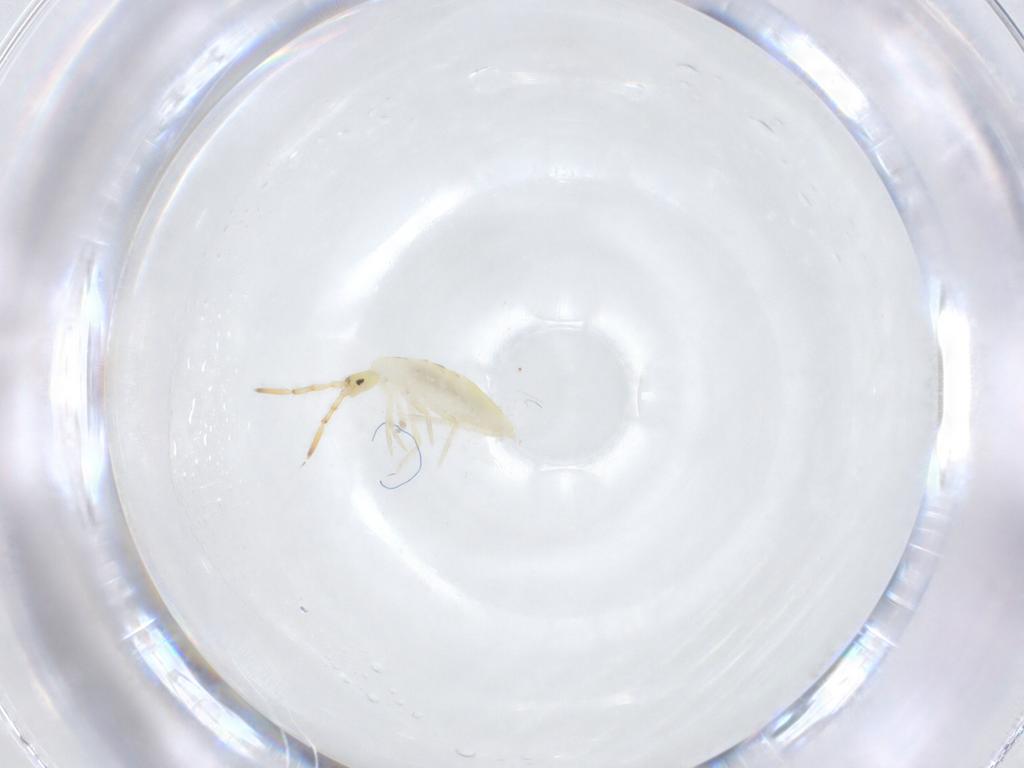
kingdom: Animalia
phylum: Arthropoda
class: Collembola
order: Entomobryomorpha
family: Entomobryidae
